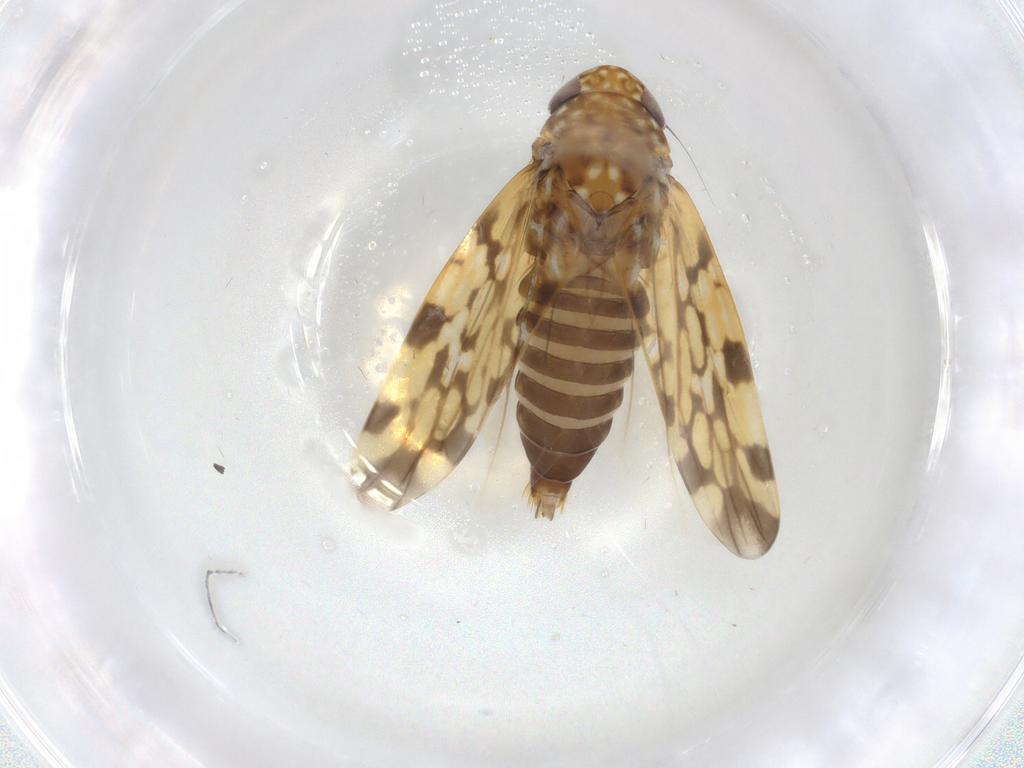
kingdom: Animalia
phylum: Arthropoda
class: Insecta
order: Hemiptera
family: Cicadellidae
